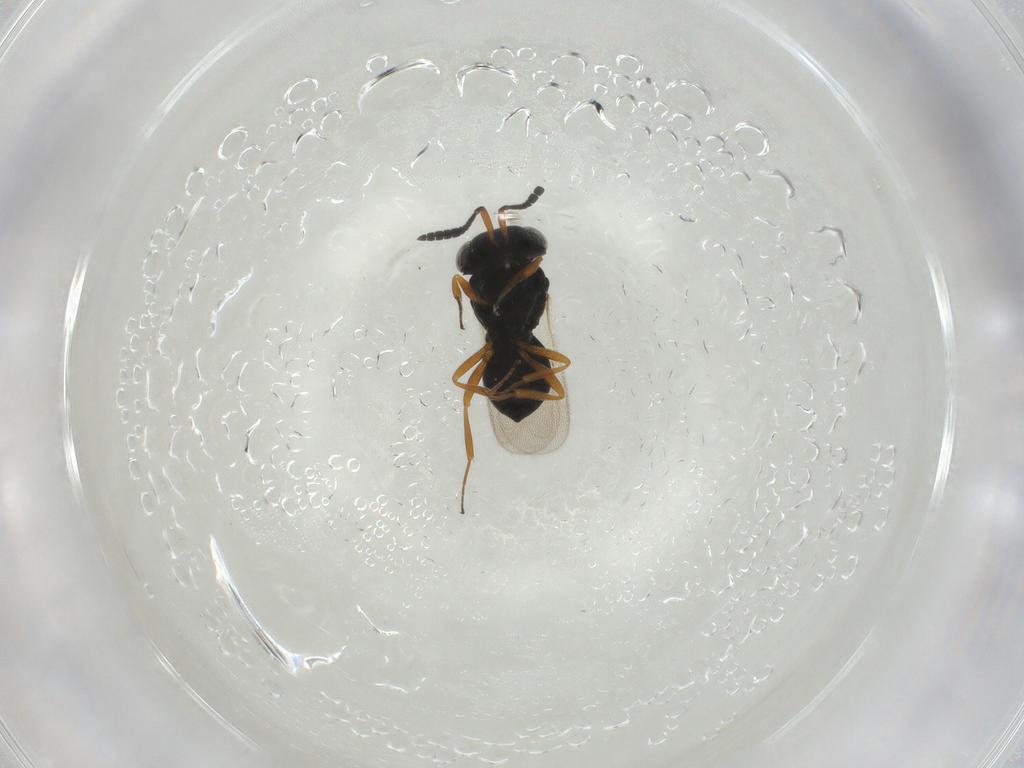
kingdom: Animalia
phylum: Arthropoda
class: Insecta
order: Hymenoptera
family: Scelionidae
